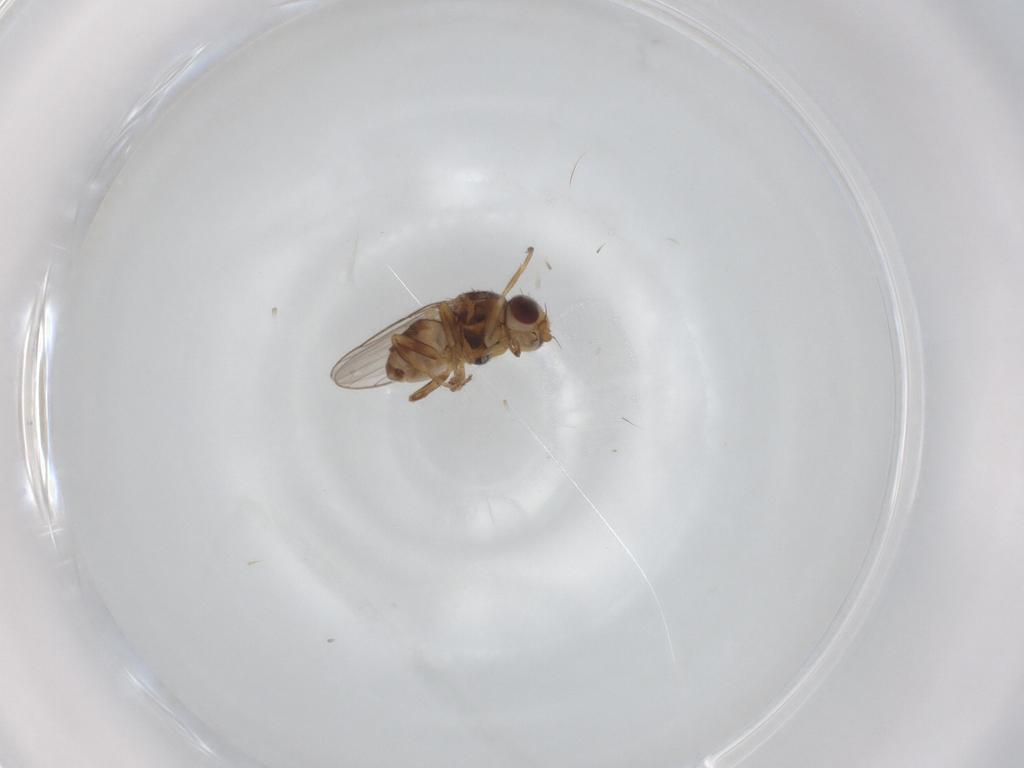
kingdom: Animalia
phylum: Arthropoda
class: Insecta
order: Diptera
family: Chloropidae
